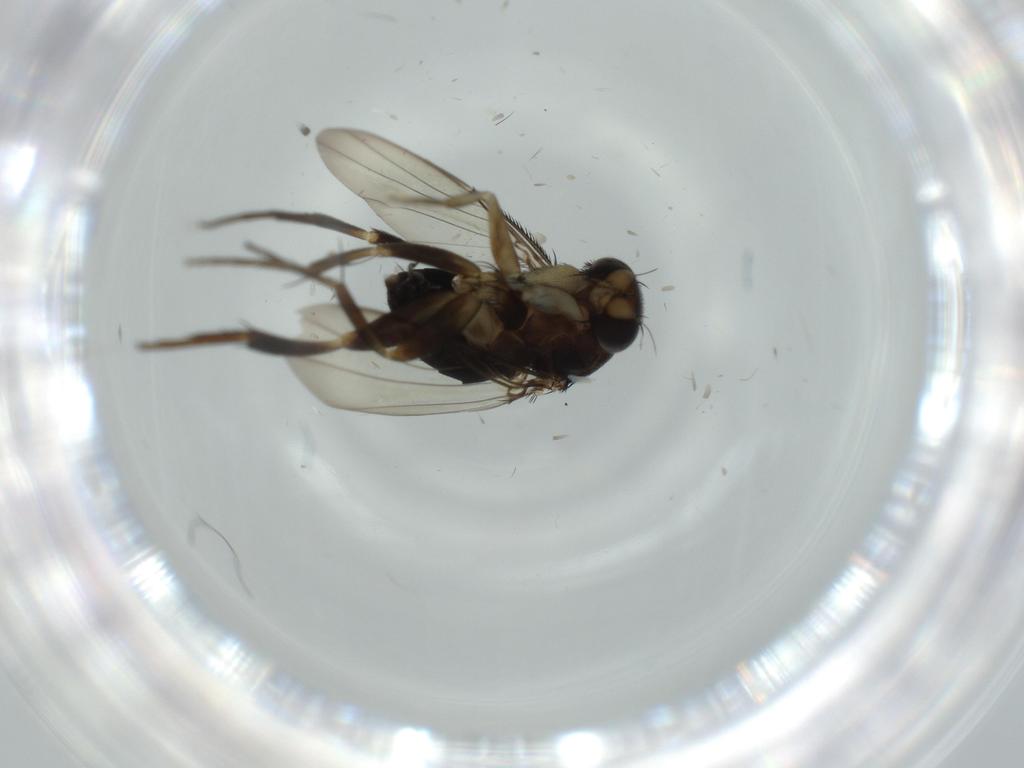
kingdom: Animalia
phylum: Arthropoda
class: Insecta
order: Diptera
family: Phoridae
